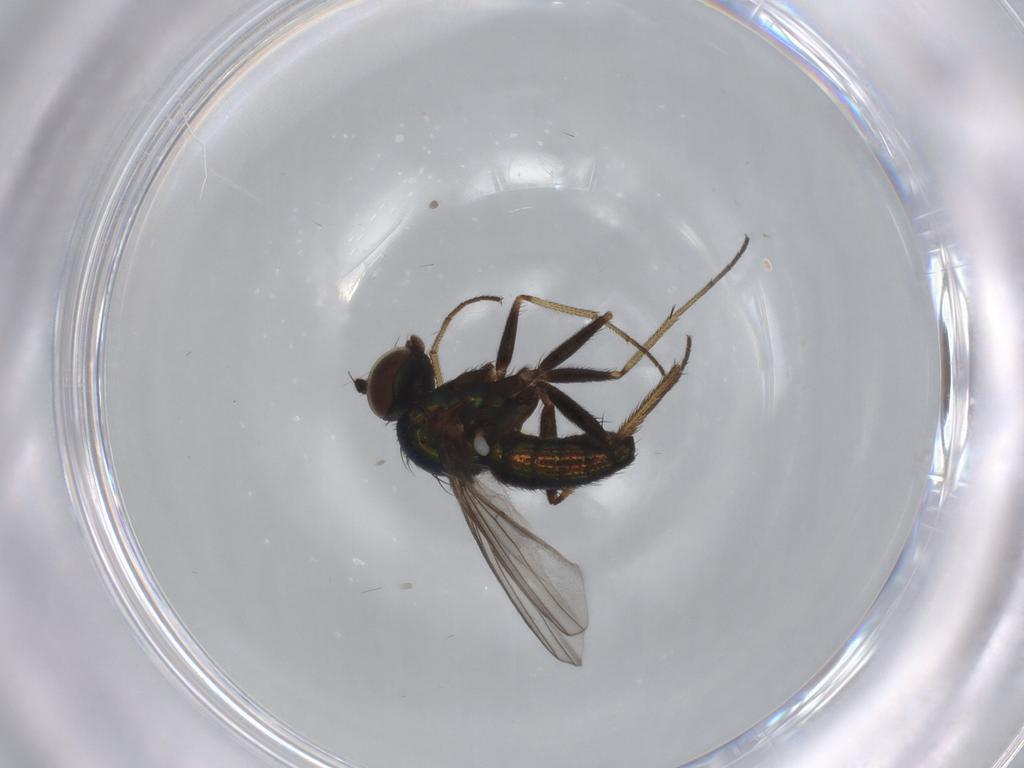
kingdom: Animalia
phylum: Arthropoda
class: Insecta
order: Diptera
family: Dolichopodidae
